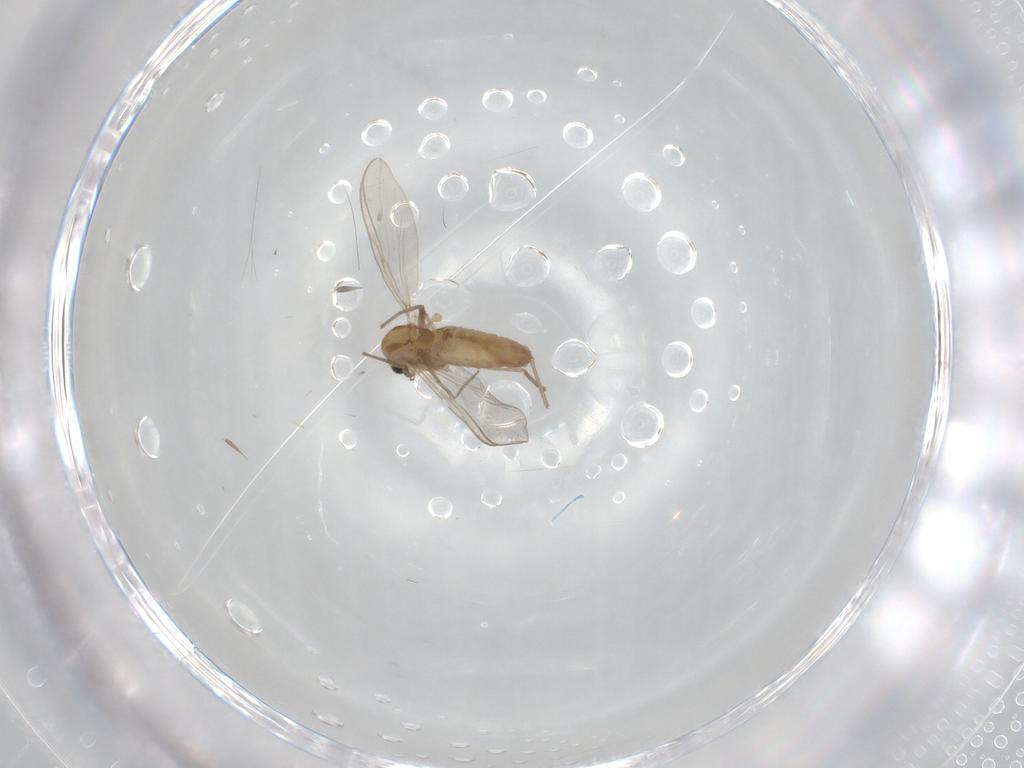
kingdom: Animalia
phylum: Arthropoda
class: Insecta
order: Diptera
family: Chironomidae
